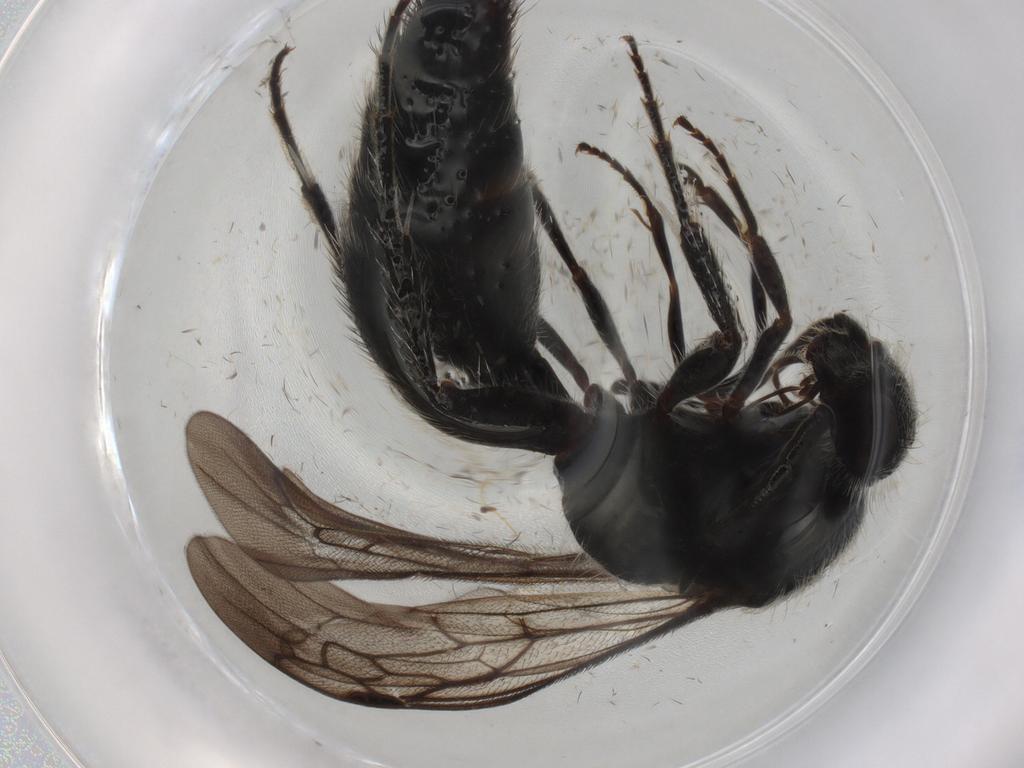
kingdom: Animalia
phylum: Arthropoda
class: Insecta
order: Hymenoptera
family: Mutillidae
